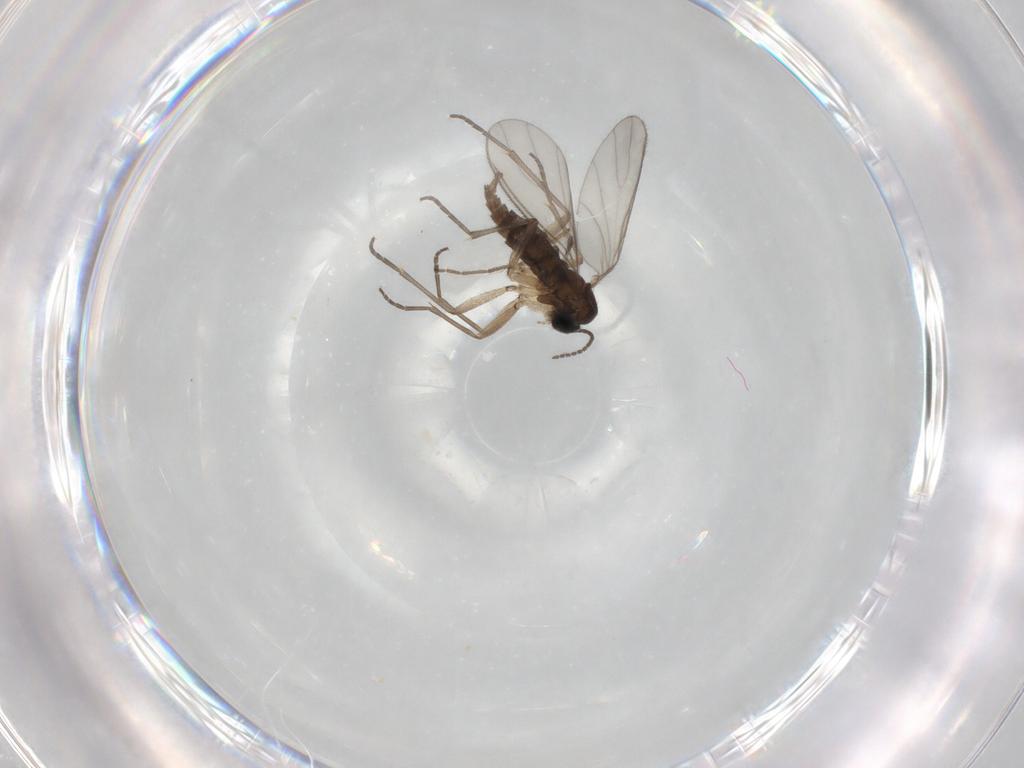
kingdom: Animalia
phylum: Arthropoda
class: Insecta
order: Diptera
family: Sciaridae
